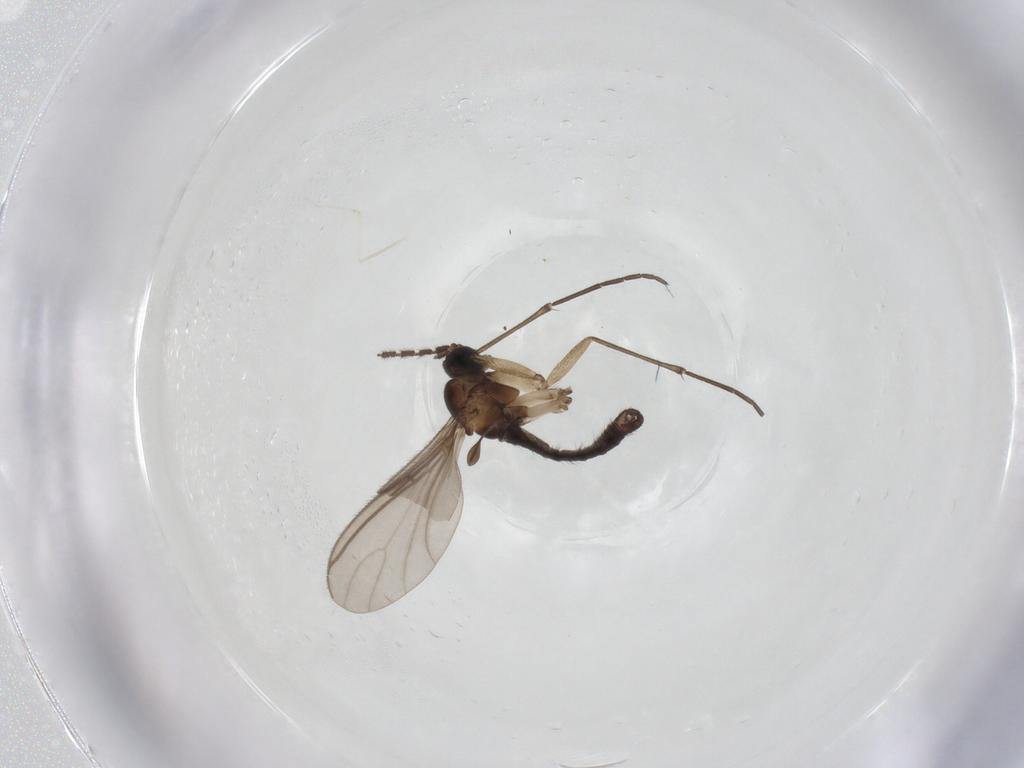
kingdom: Animalia
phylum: Arthropoda
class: Insecta
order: Diptera
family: Sciaridae
